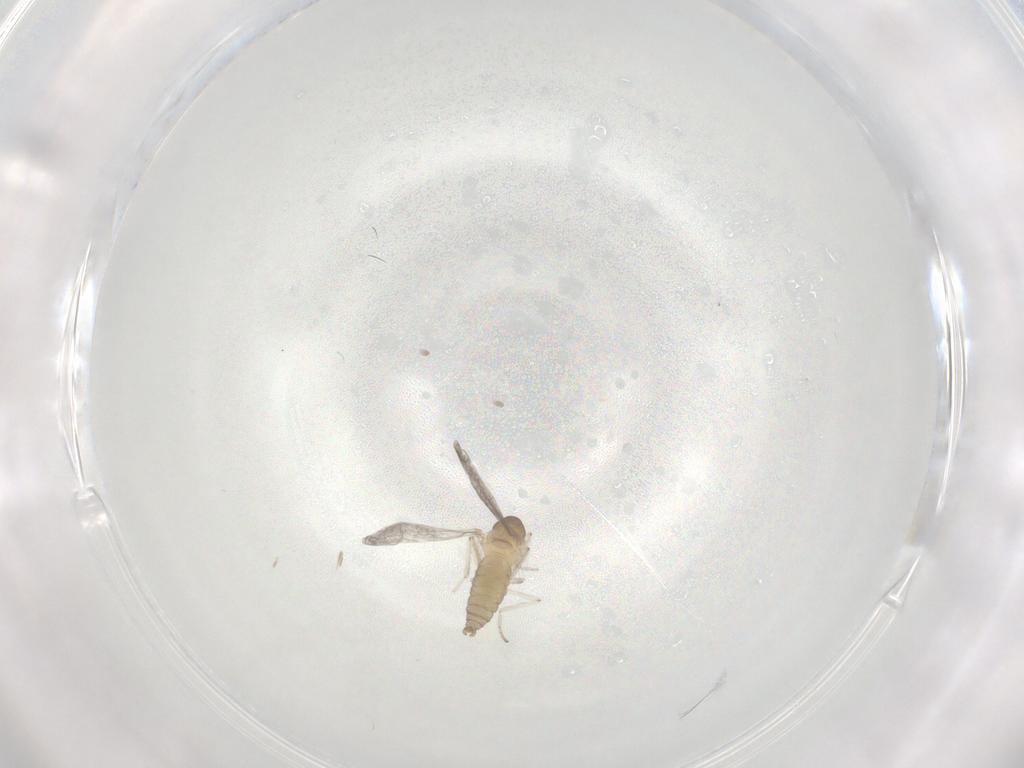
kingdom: Animalia
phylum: Arthropoda
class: Insecta
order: Diptera
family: Cecidomyiidae
